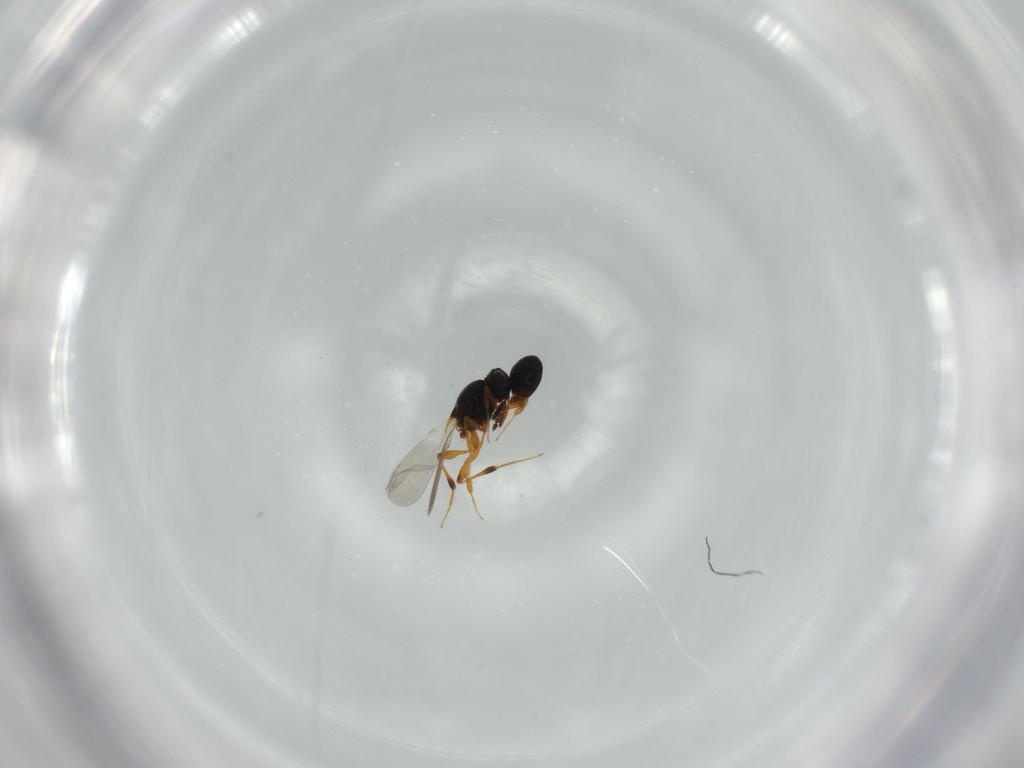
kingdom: Animalia
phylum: Arthropoda
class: Insecta
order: Hymenoptera
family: Platygastridae
